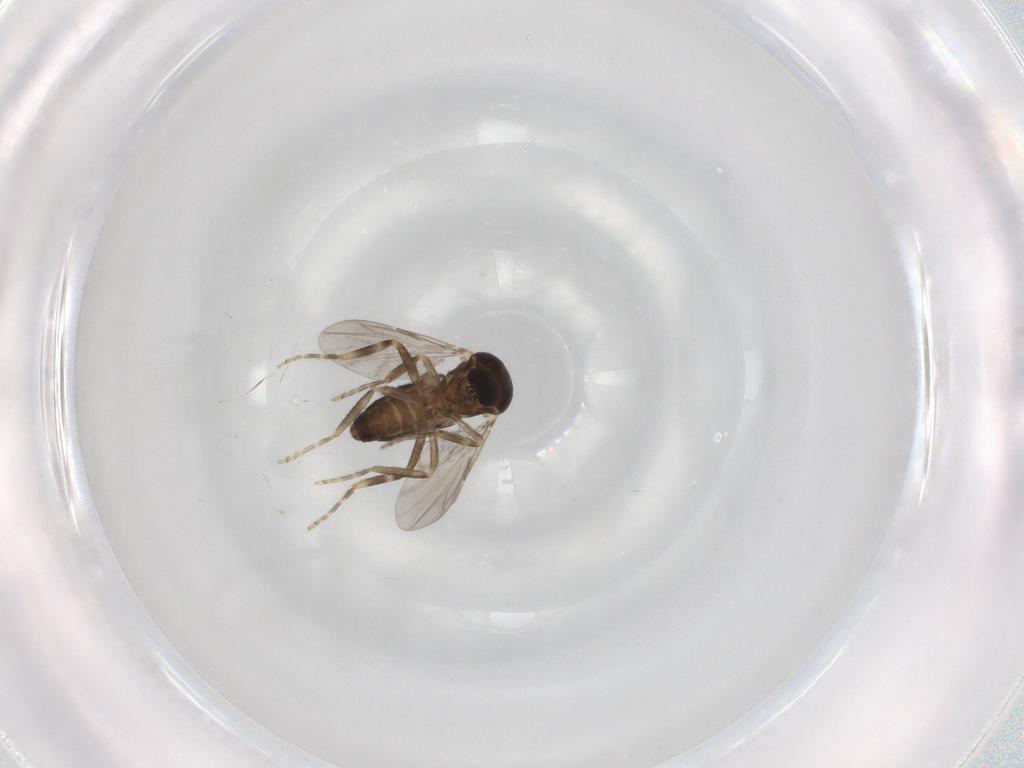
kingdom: Animalia
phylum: Arthropoda
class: Insecta
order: Diptera
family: Ceratopogonidae
